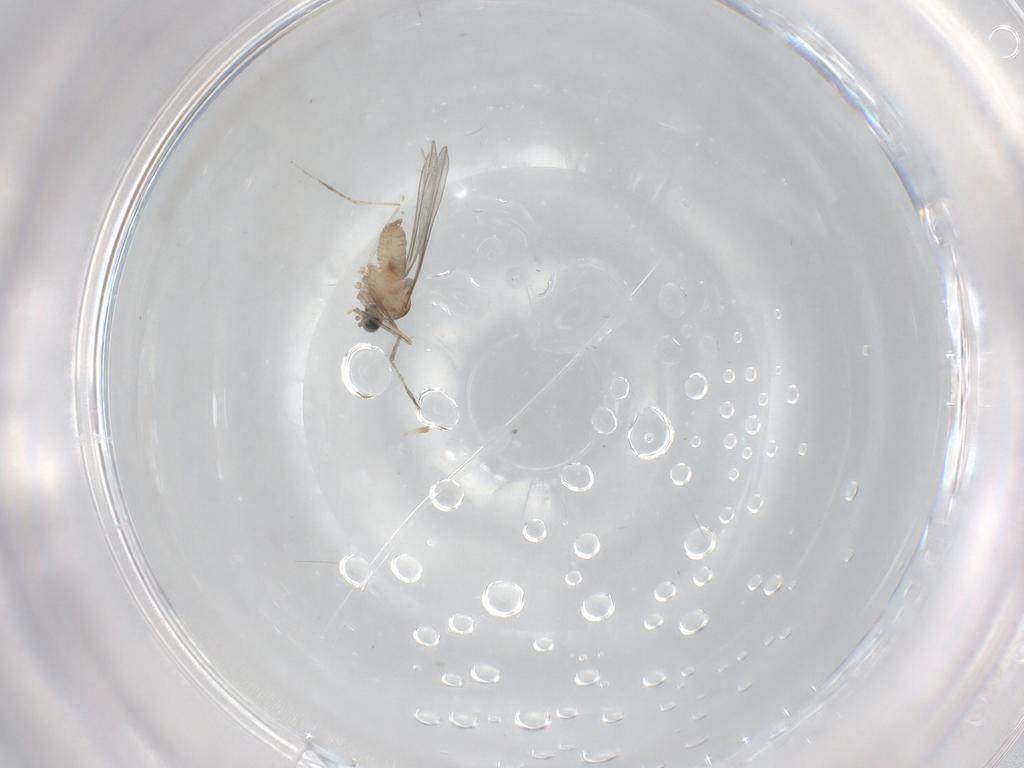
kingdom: Animalia
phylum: Arthropoda
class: Insecta
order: Diptera
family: Cecidomyiidae
